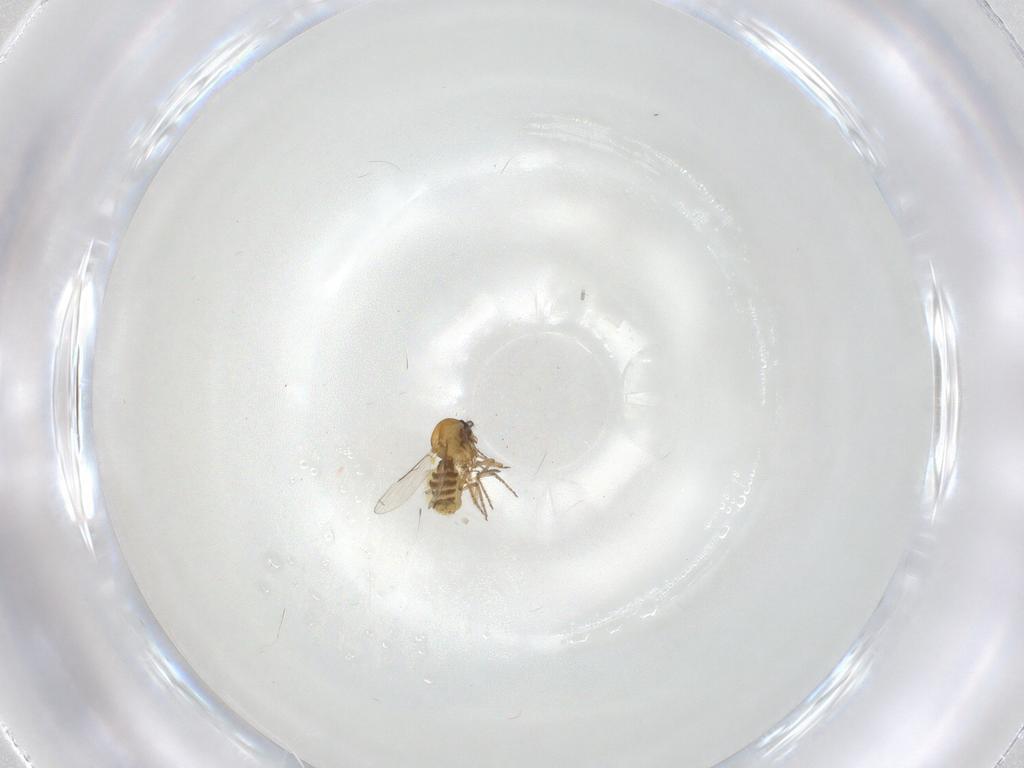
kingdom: Animalia
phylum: Arthropoda
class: Insecta
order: Diptera
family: Ceratopogonidae
